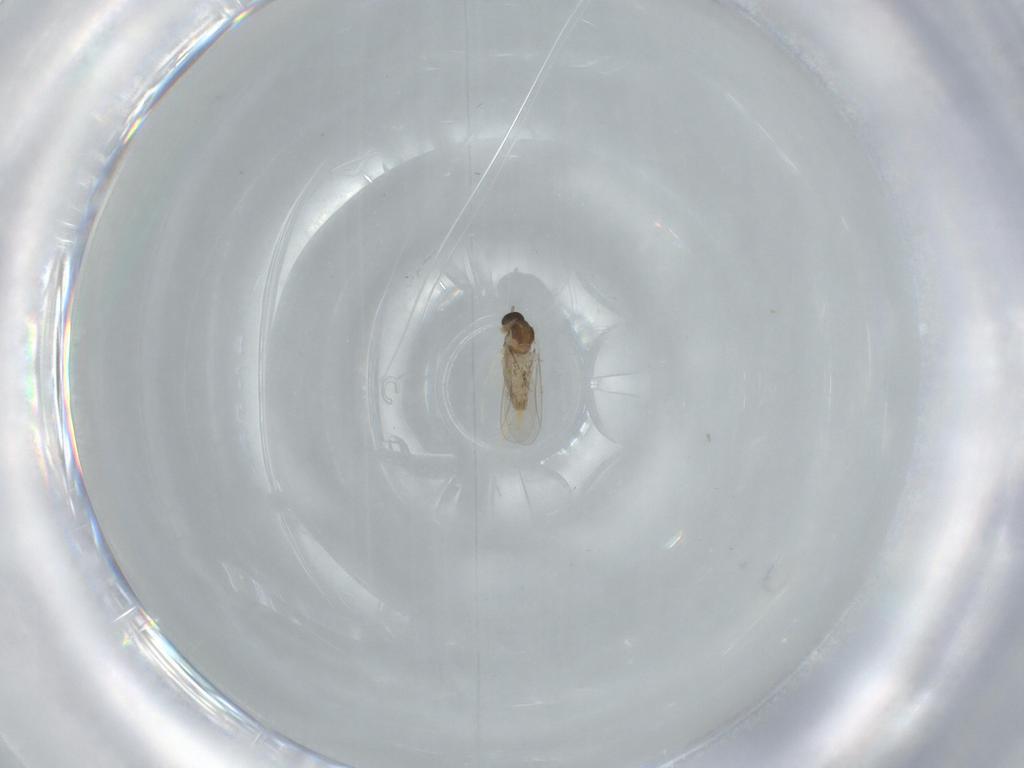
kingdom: Animalia
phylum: Arthropoda
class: Insecta
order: Diptera
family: Cecidomyiidae
